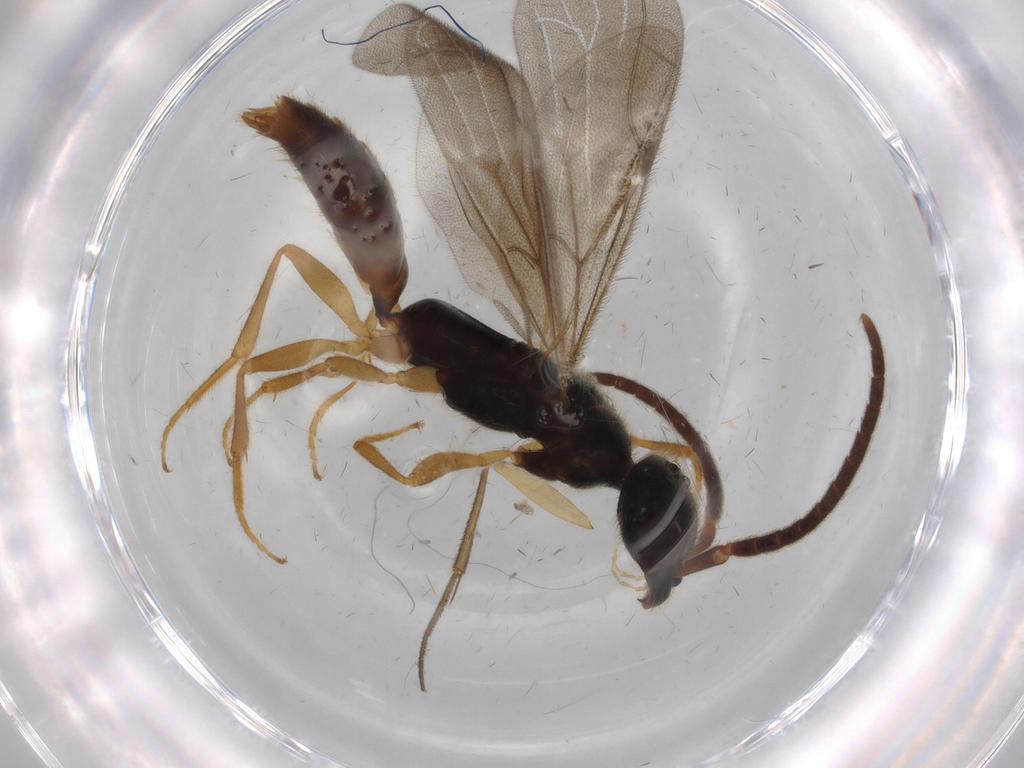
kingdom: Animalia
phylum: Arthropoda
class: Insecta
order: Hymenoptera
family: Bethylidae
